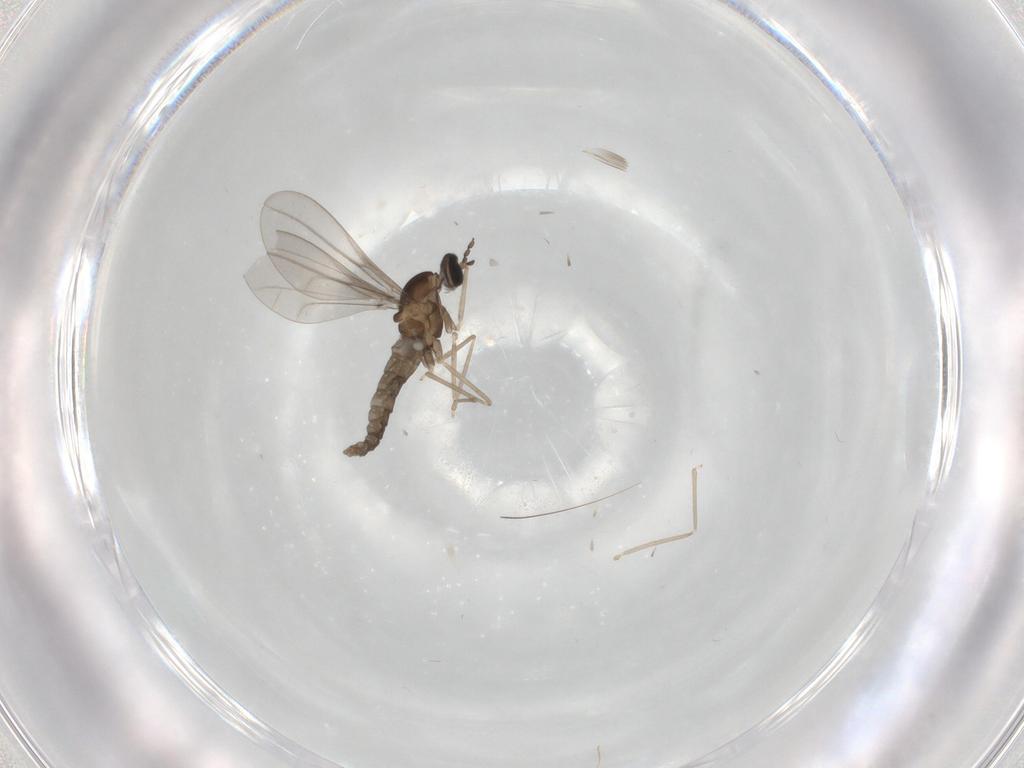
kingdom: Animalia
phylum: Arthropoda
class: Insecta
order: Diptera
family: Cecidomyiidae
